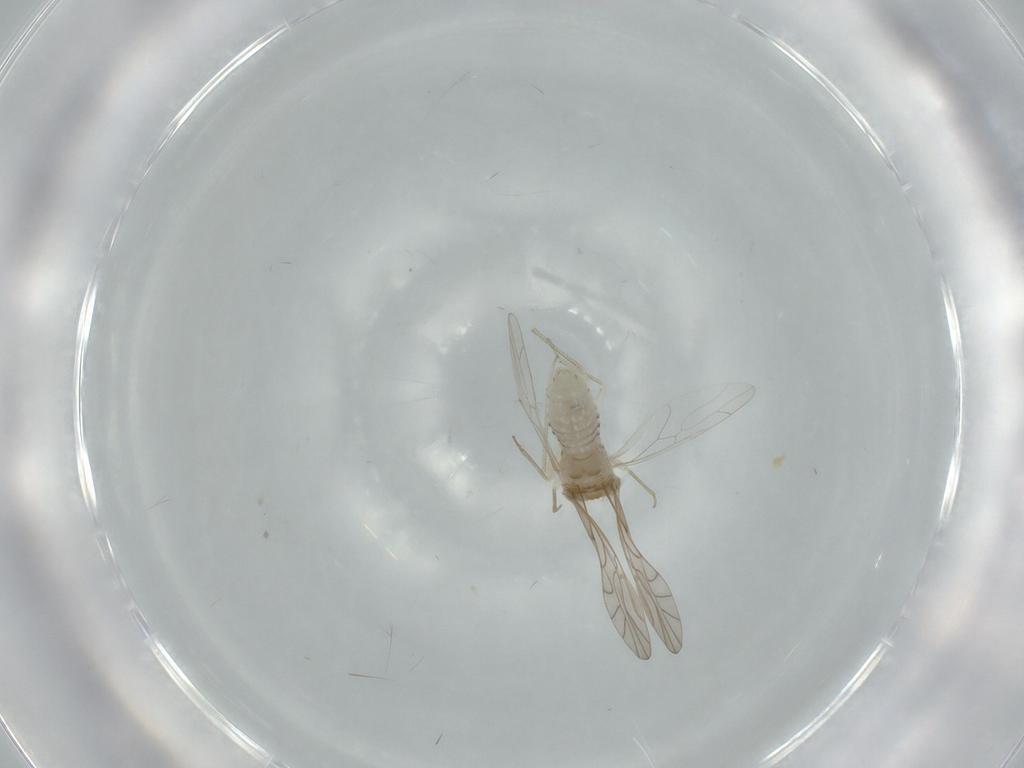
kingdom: Animalia
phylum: Arthropoda
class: Insecta
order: Psocodea
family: Lachesillidae
